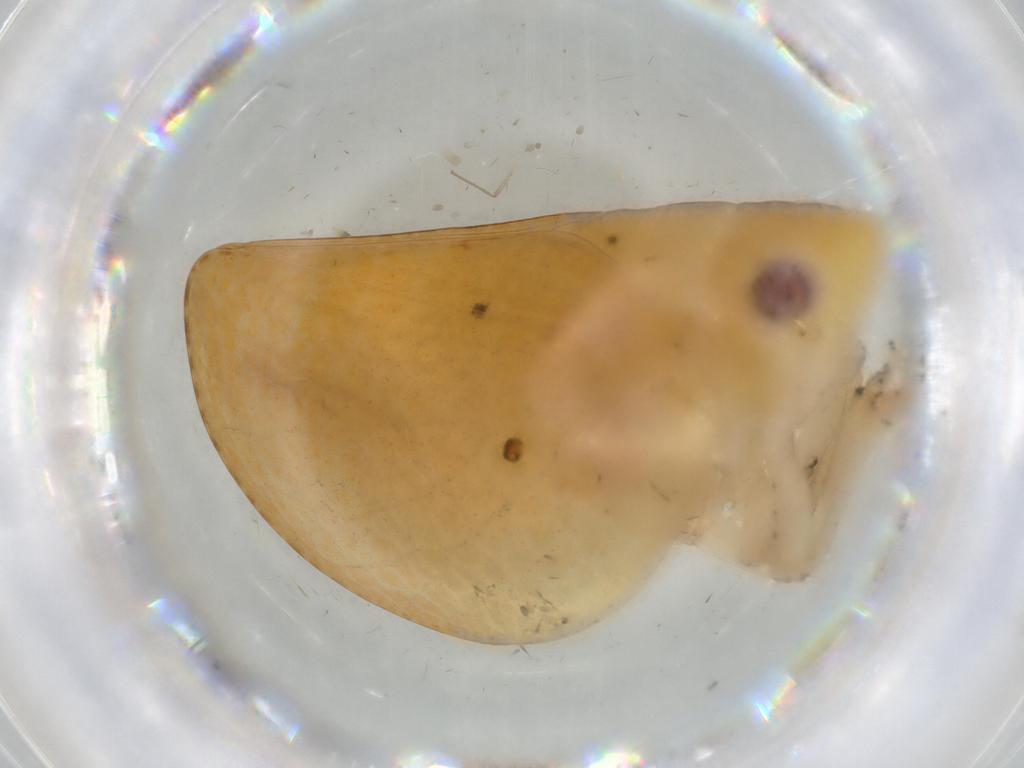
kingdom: Animalia
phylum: Arthropoda
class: Insecta
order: Hemiptera
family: Acanaloniidae
